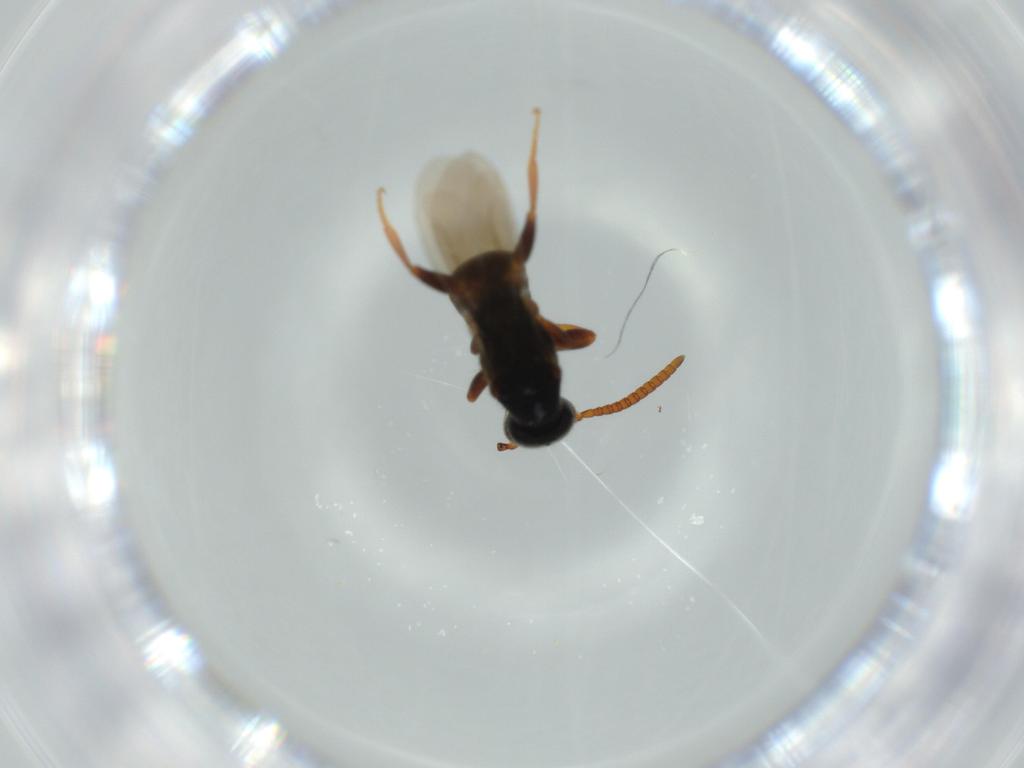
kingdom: Animalia
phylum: Arthropoda
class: Insecta
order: Hymenoptera
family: Bethylidae
